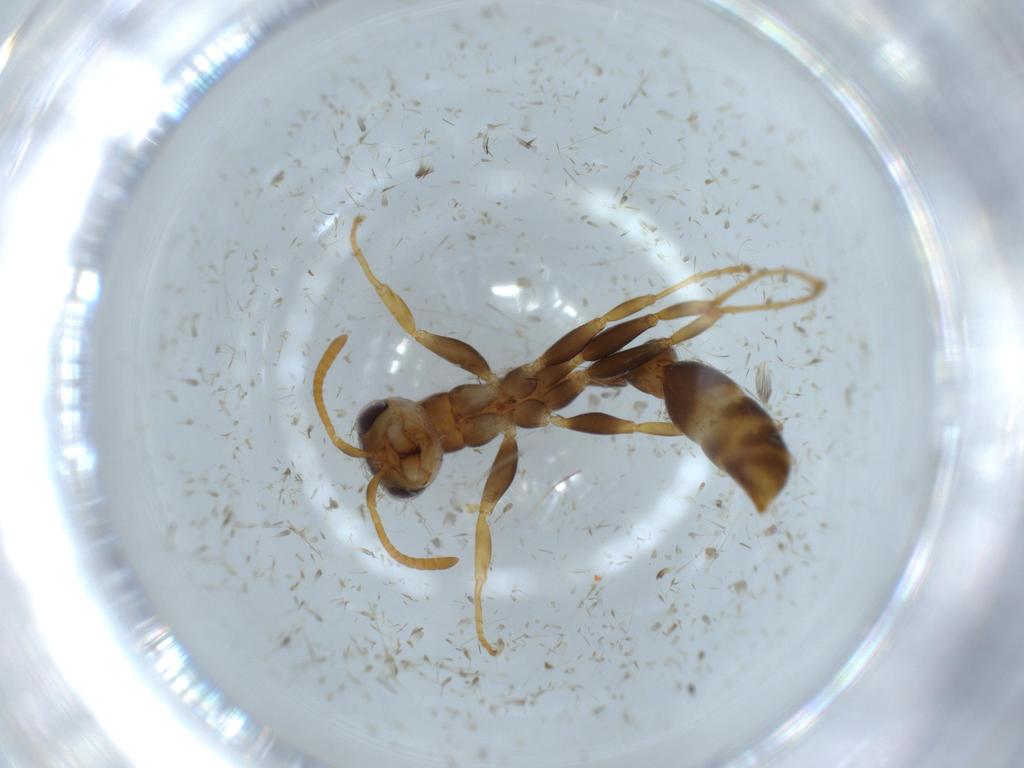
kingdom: Animalia
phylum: Arthropoda
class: Insecta
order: Hymenoptera
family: Formicidae
